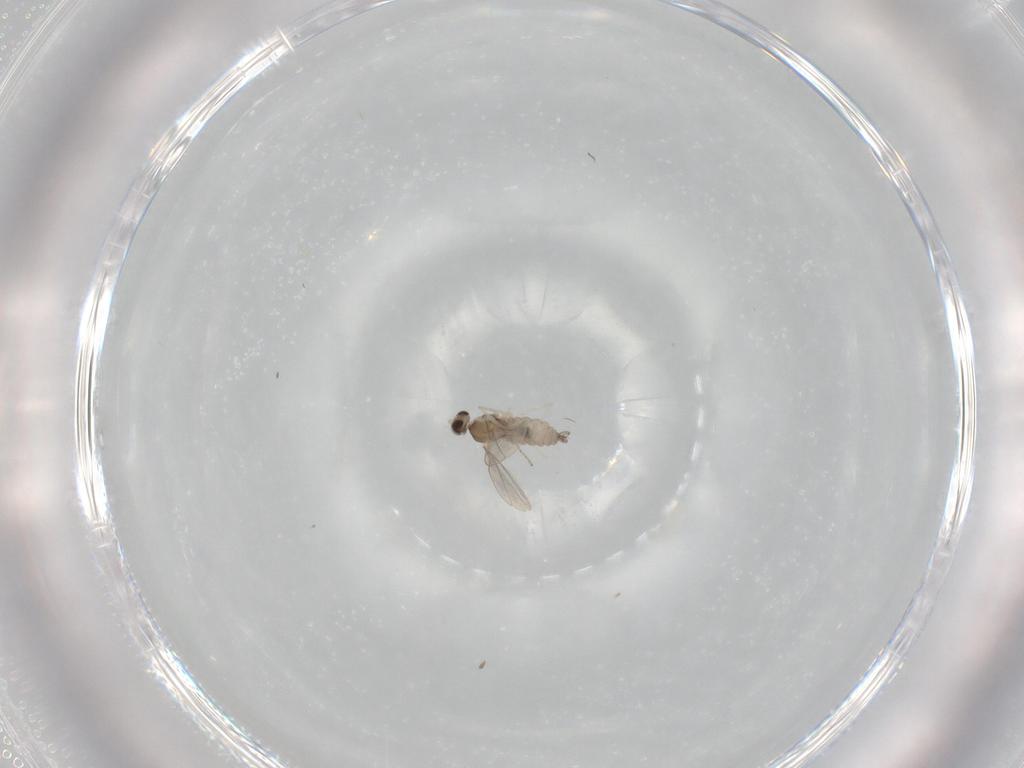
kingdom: Animalia
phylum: Arthropoda
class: Insecta
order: Diptera
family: Cecidomyiidae
